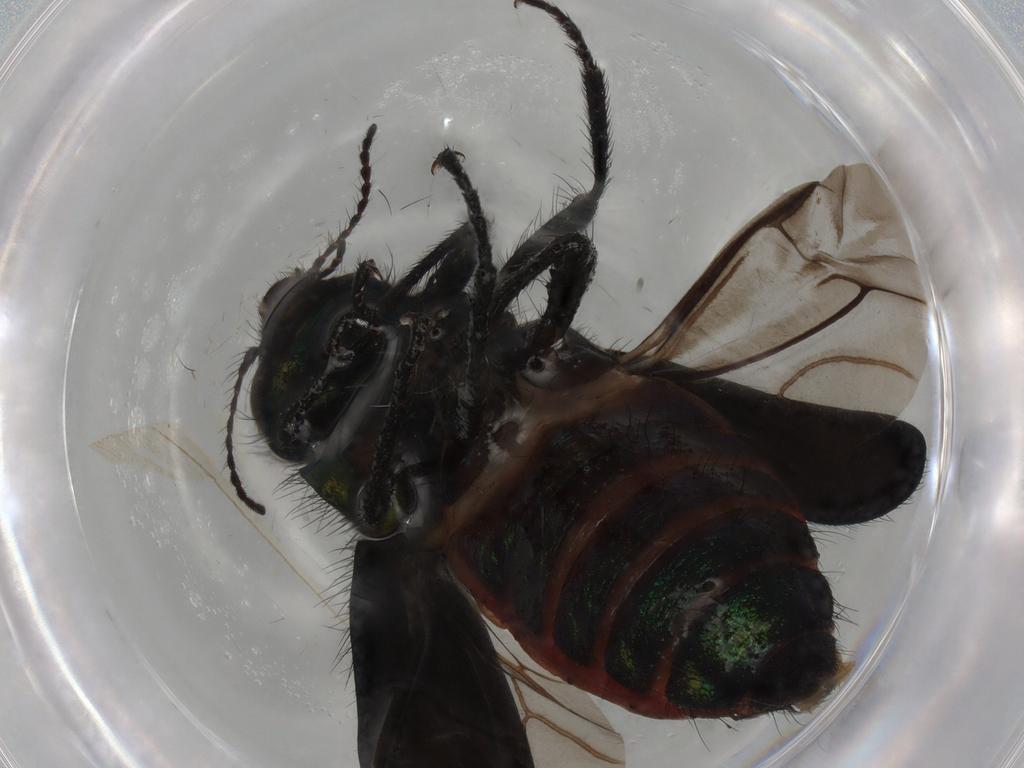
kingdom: Animalia
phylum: Arthropoda
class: Insecta
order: Coleoptera
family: Melyridae
